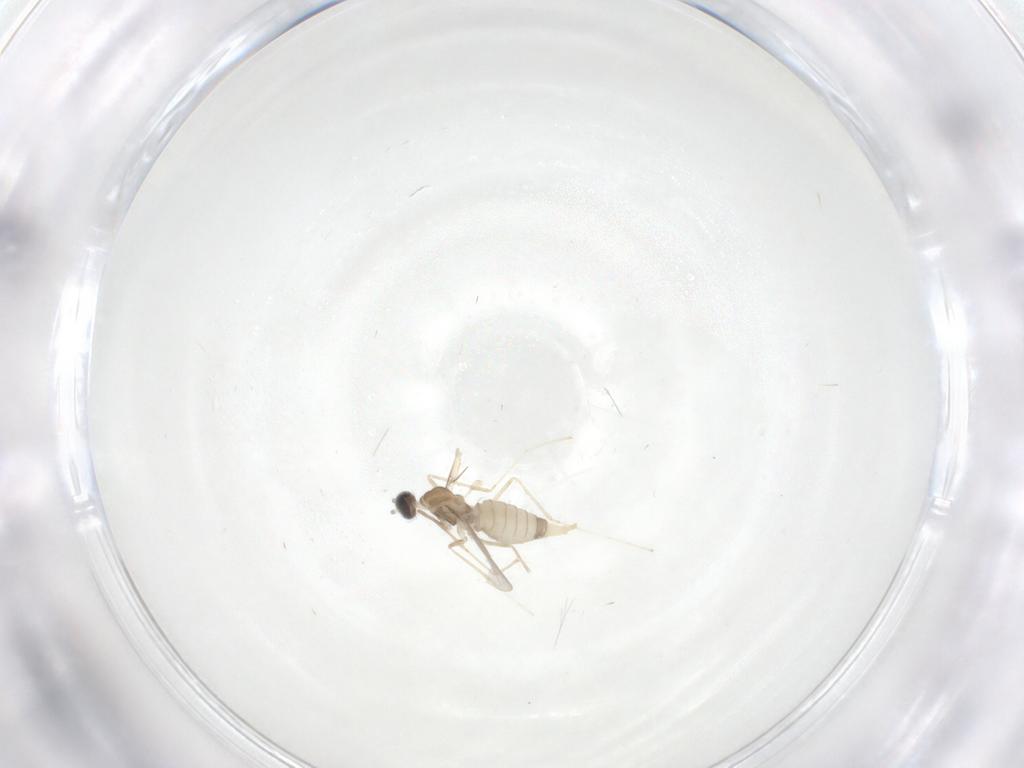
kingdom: Animalia
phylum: Arthropoda
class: Insecta
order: Diptera
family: Cecidomyiidae
